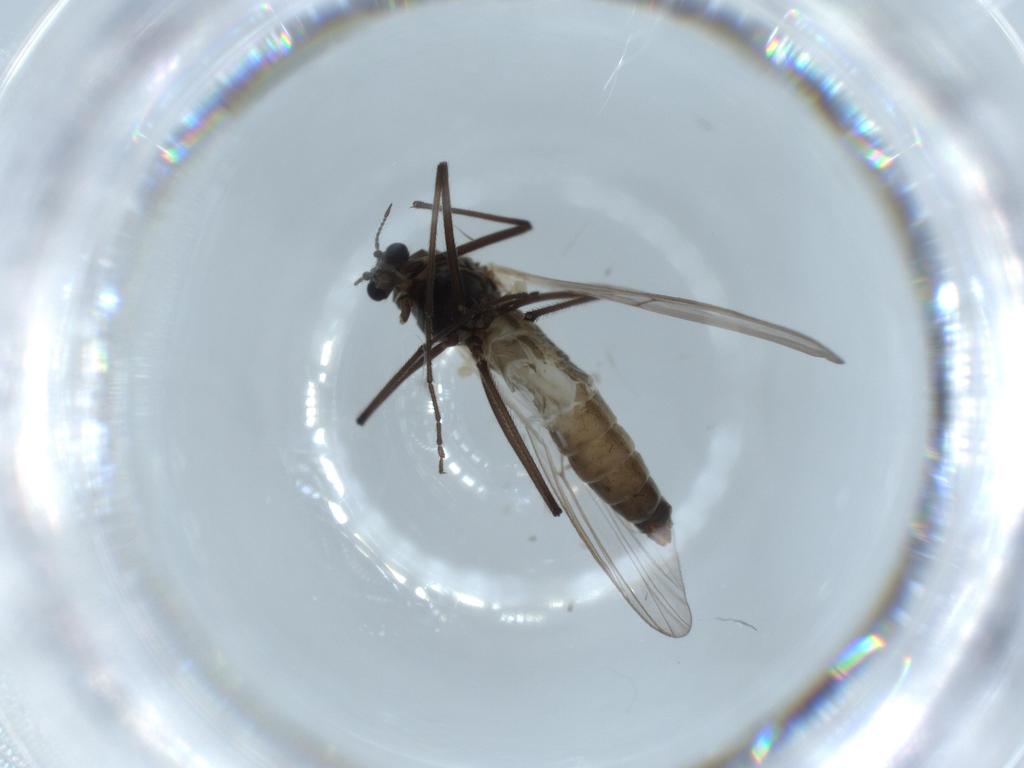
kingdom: Animalia
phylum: Arthropoda
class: Insecta
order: Diptera
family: Chironomidae
